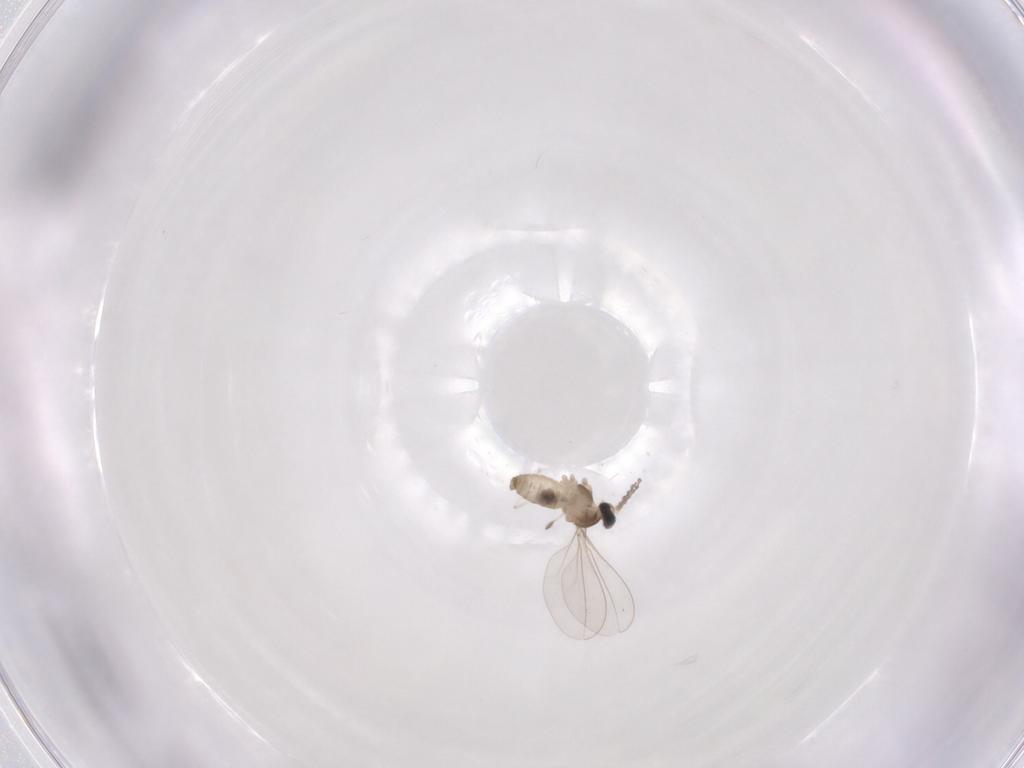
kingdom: Animalia
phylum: Arthropoda
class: Insecta
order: Diptera
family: Cecidomyiidae
